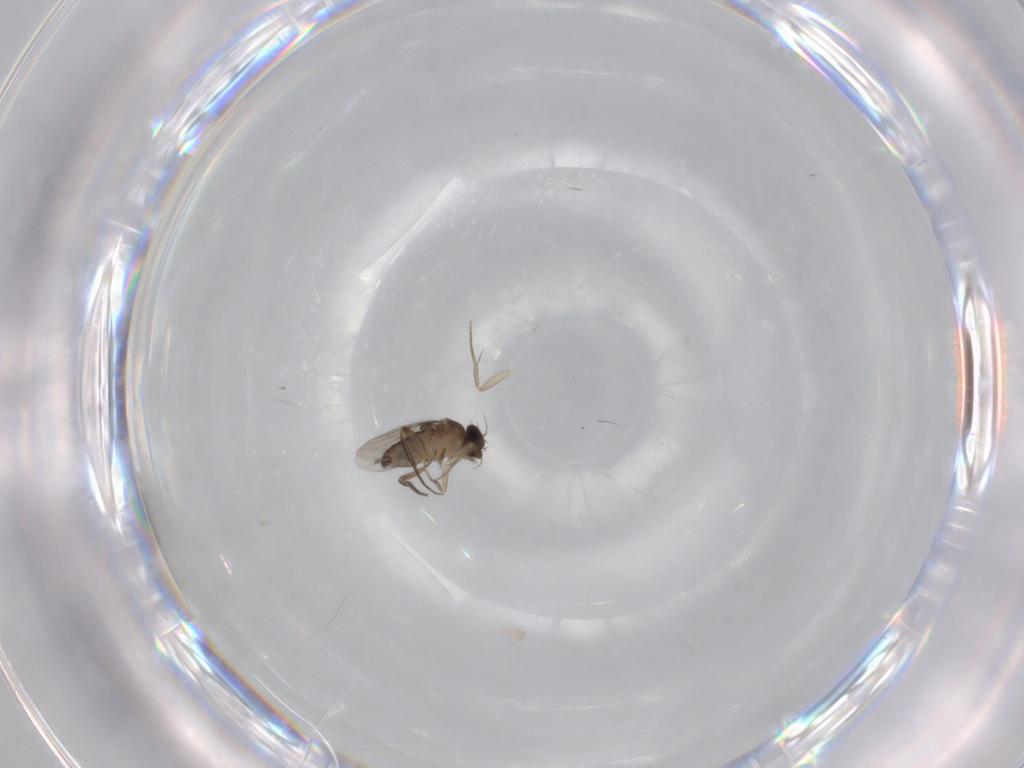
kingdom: Animalia
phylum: Arthropoda
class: Insecta
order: Diptera
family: Phoridae
